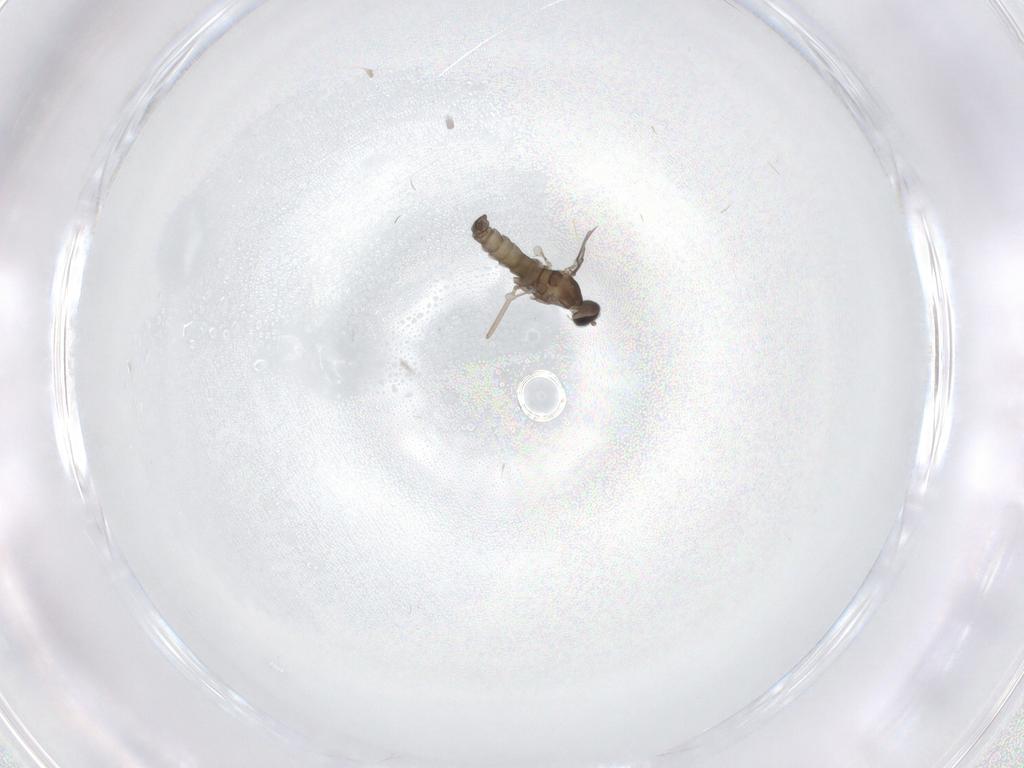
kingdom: Animalia
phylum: Arthropoda
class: Insecta
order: Diptera
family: Cecidomyiidae
